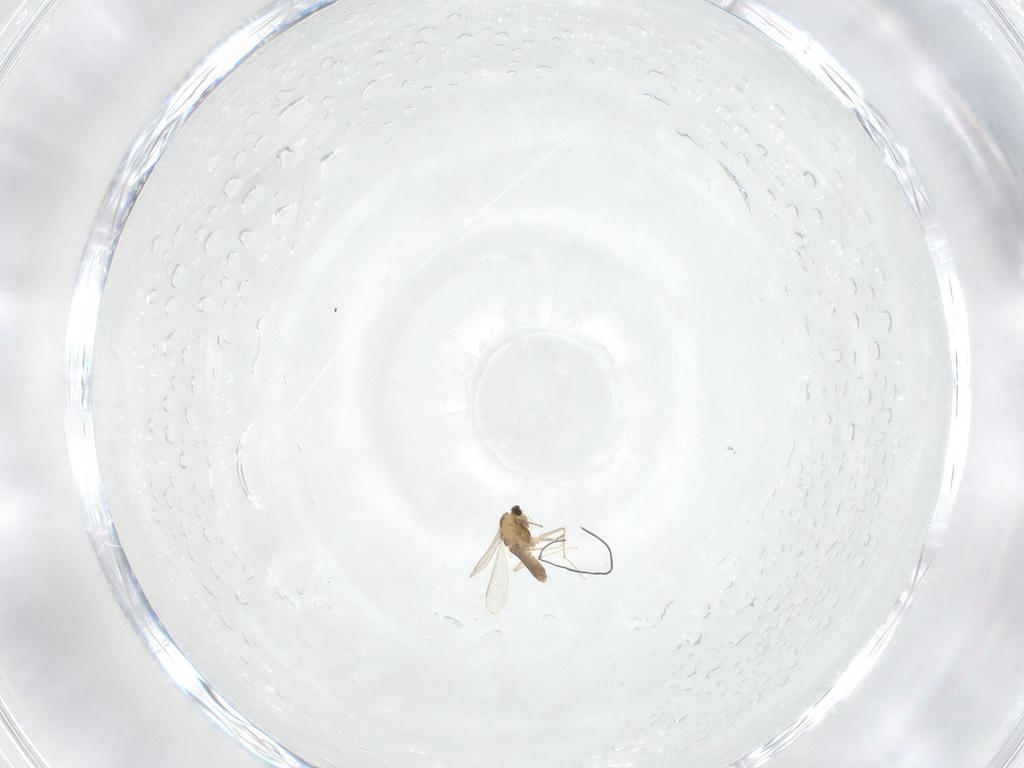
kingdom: Animalia
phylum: Arthropoda
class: Insecta
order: Diptera
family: Chironomidae
